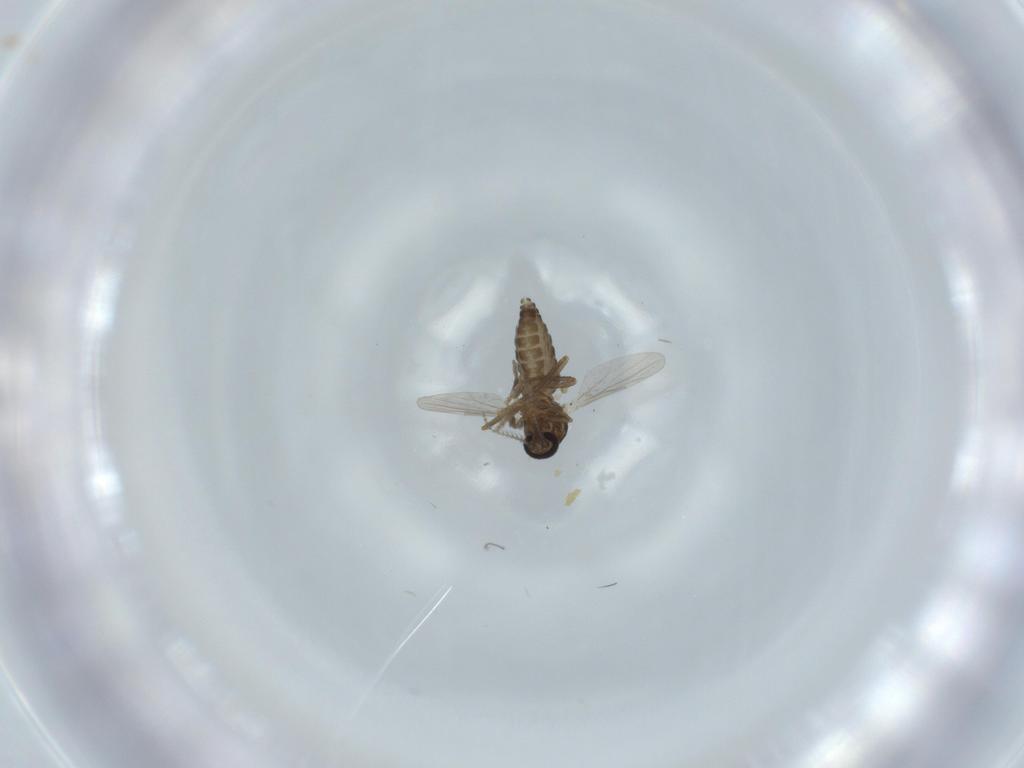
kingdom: Animalia
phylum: Arthropoda
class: Insecta
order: Diptera
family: Ceratopogonidae
